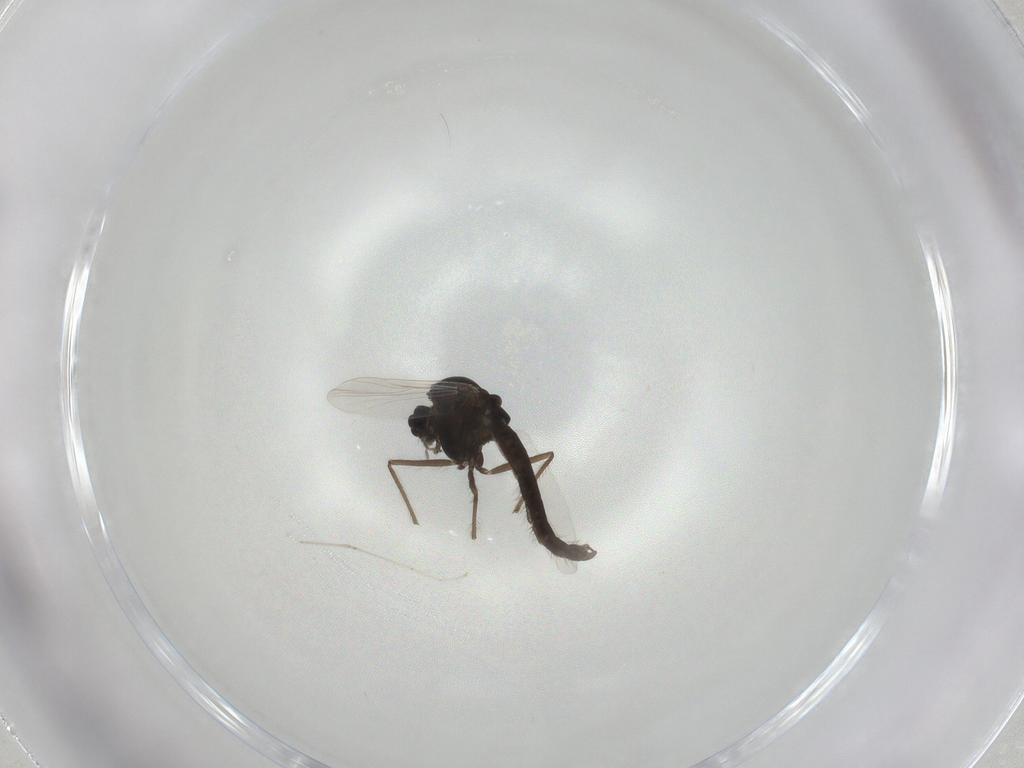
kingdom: Animalia
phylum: Arthropoda
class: Insecta
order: Diptera
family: Chironomidae
